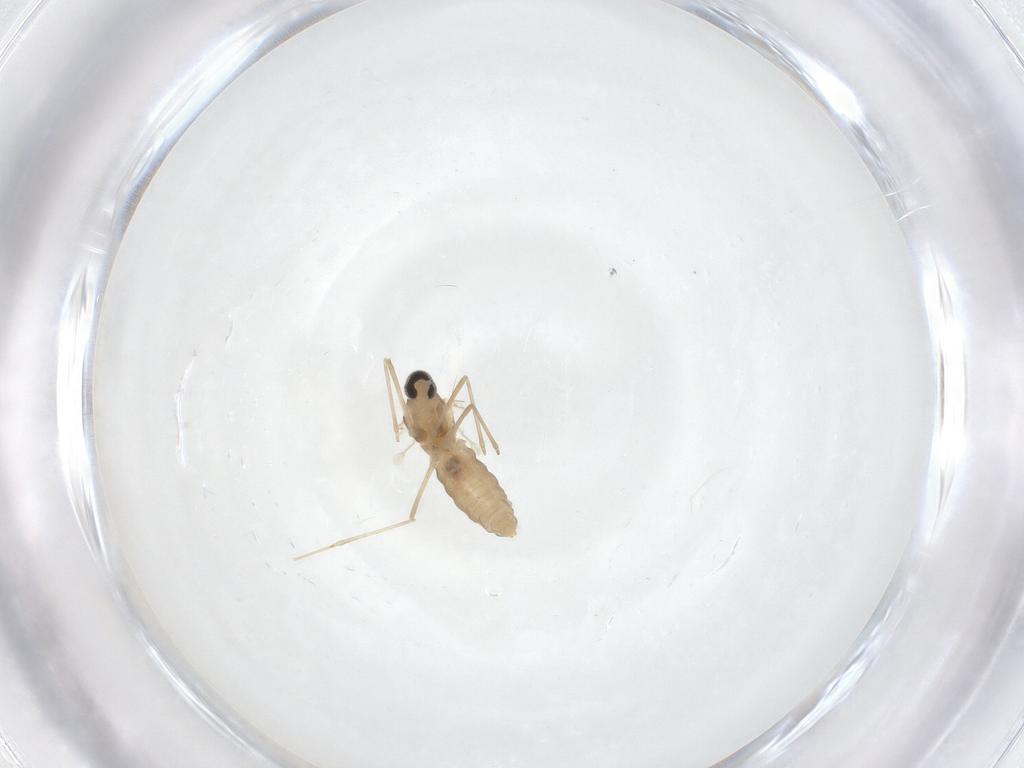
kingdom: Animalia
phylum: Arthropoda
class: Insecta
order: Diptera
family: Cecidomyiidae
